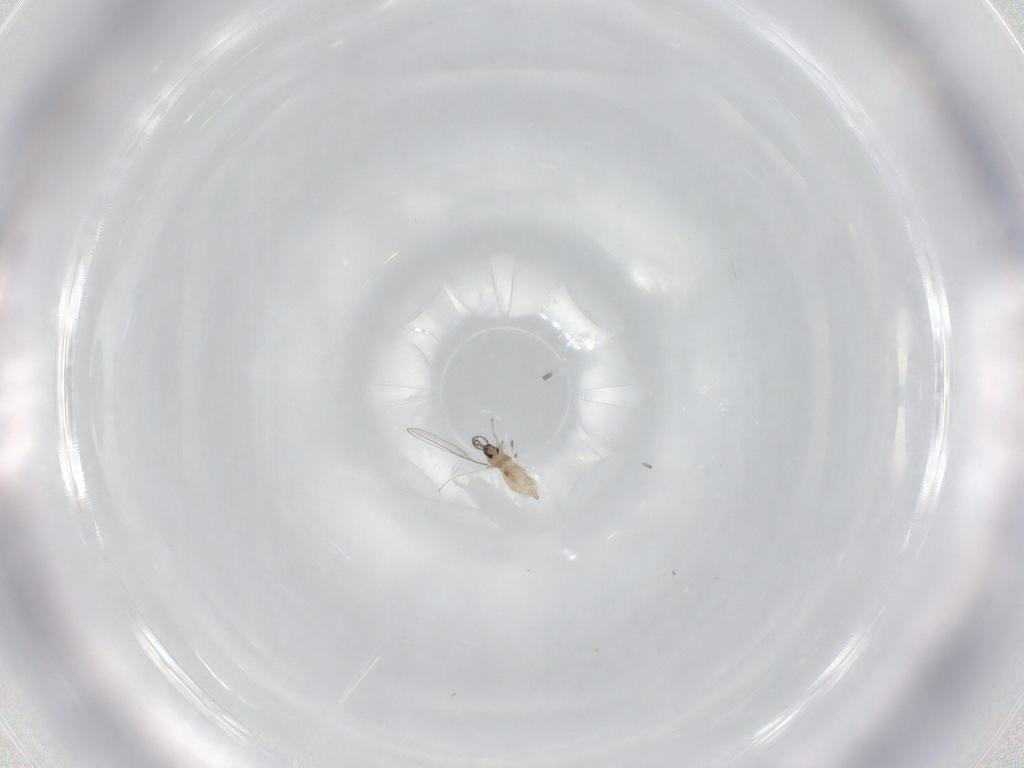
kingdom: Animalia
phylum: Arthropoda
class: Insecta
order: Diptera
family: Cecidomyiidae
